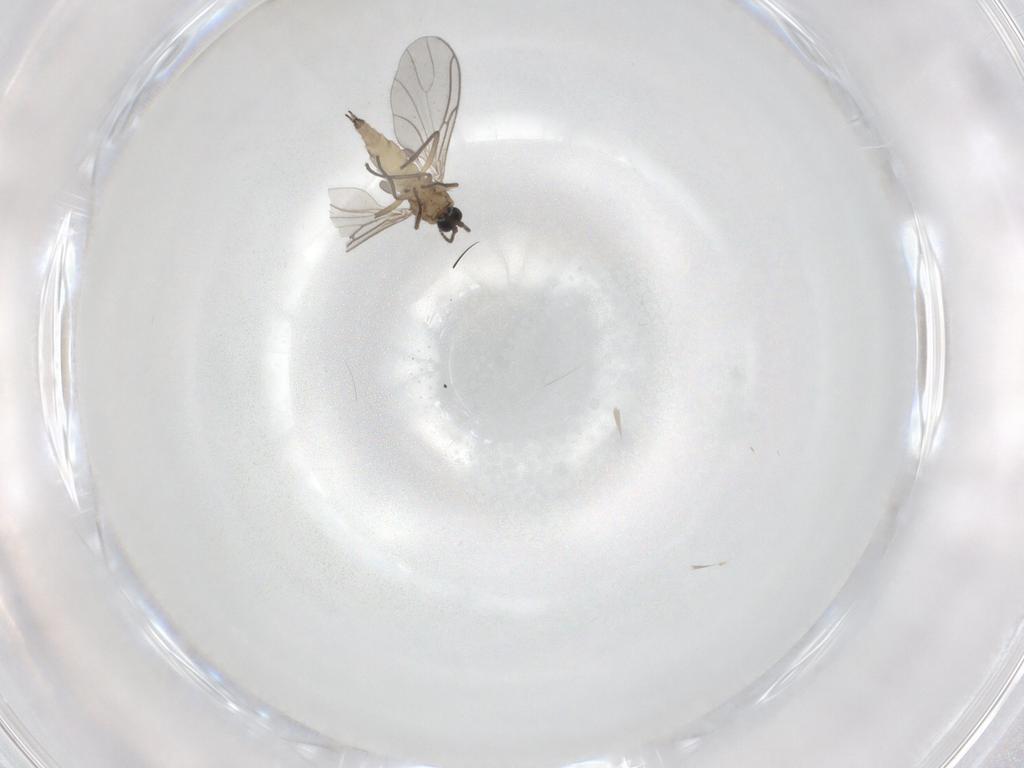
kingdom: Animalia
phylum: Arthropoda
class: Insecta
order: Diptera
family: Sciaridae
